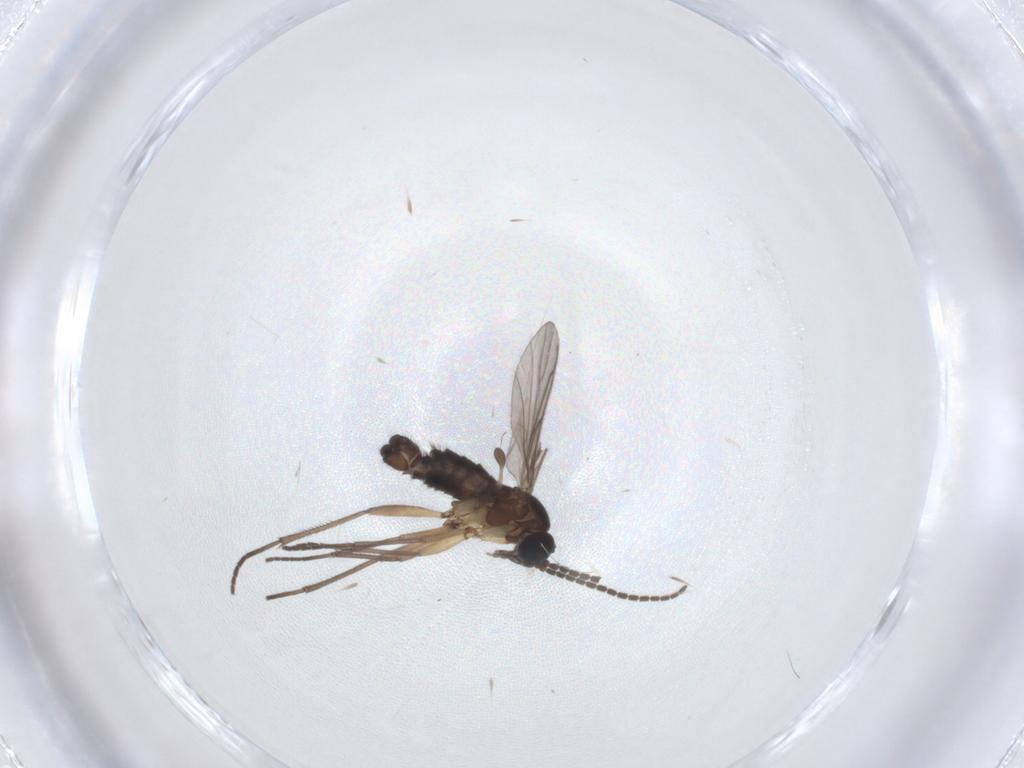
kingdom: Animalia
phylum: Arthropoda
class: Insecta
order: Diptera
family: Sciaridae
